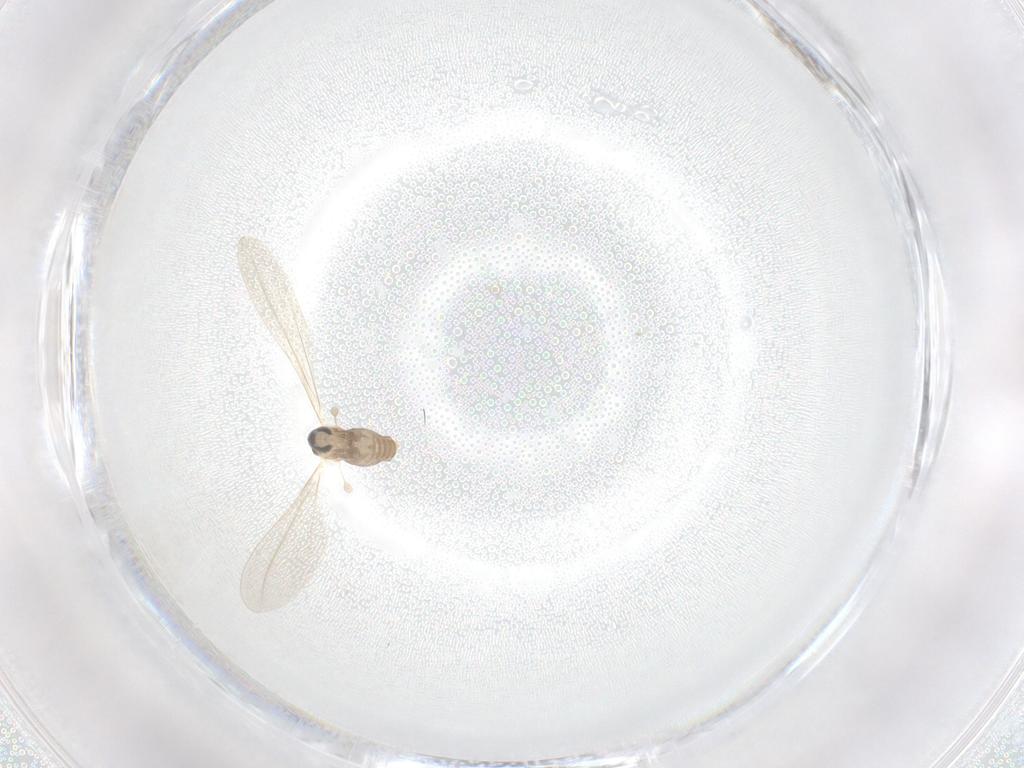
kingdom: Animalia
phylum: Arthropoda
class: Insecta
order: Diptera
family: Cecidomyiidae
